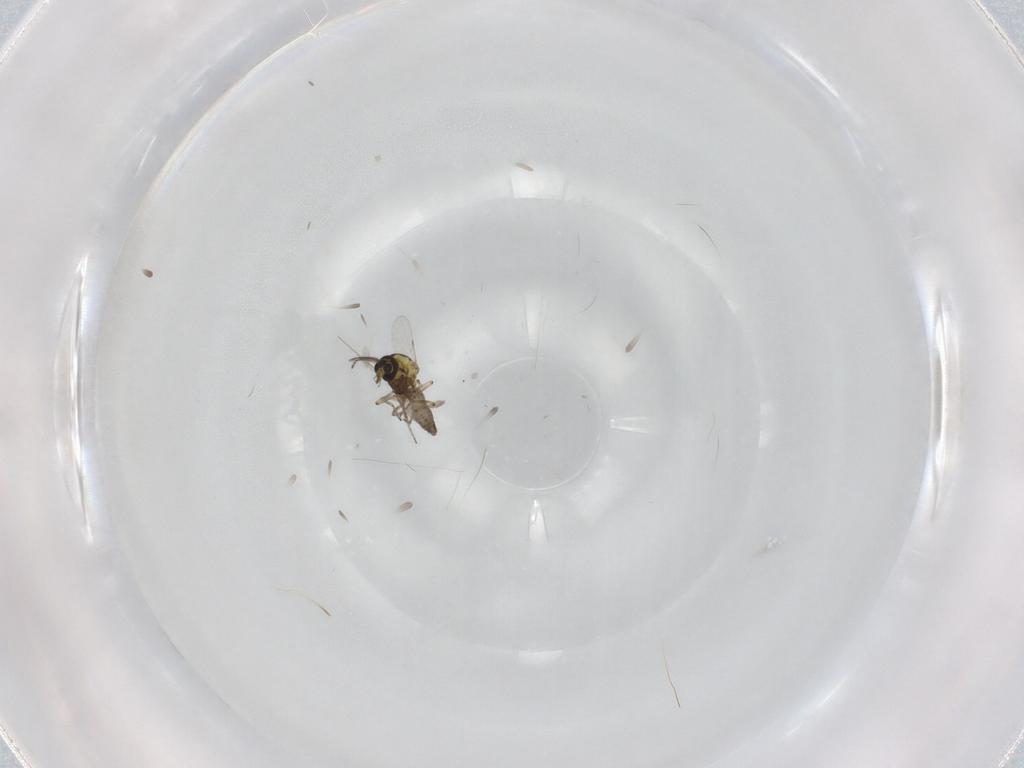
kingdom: Animalia
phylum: Arthropoda
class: Insecta
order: Diptera
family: Ceratopogonidae
